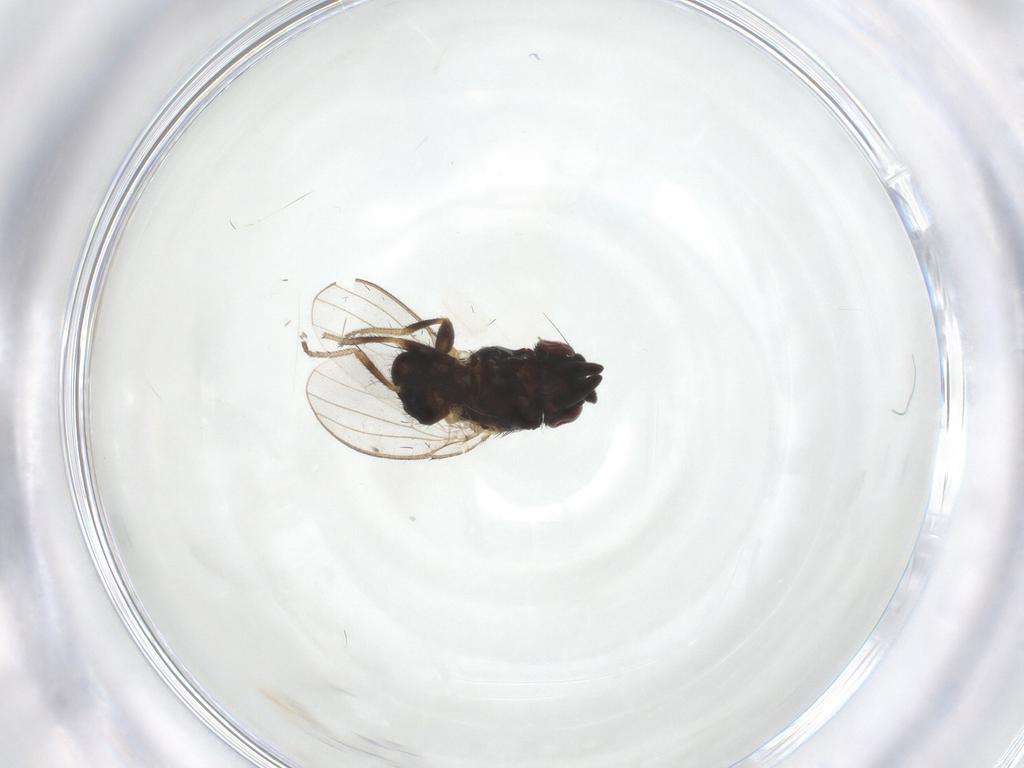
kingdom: Animalia
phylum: Arthropoda
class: Insecta
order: Diptera
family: Milichiidae
